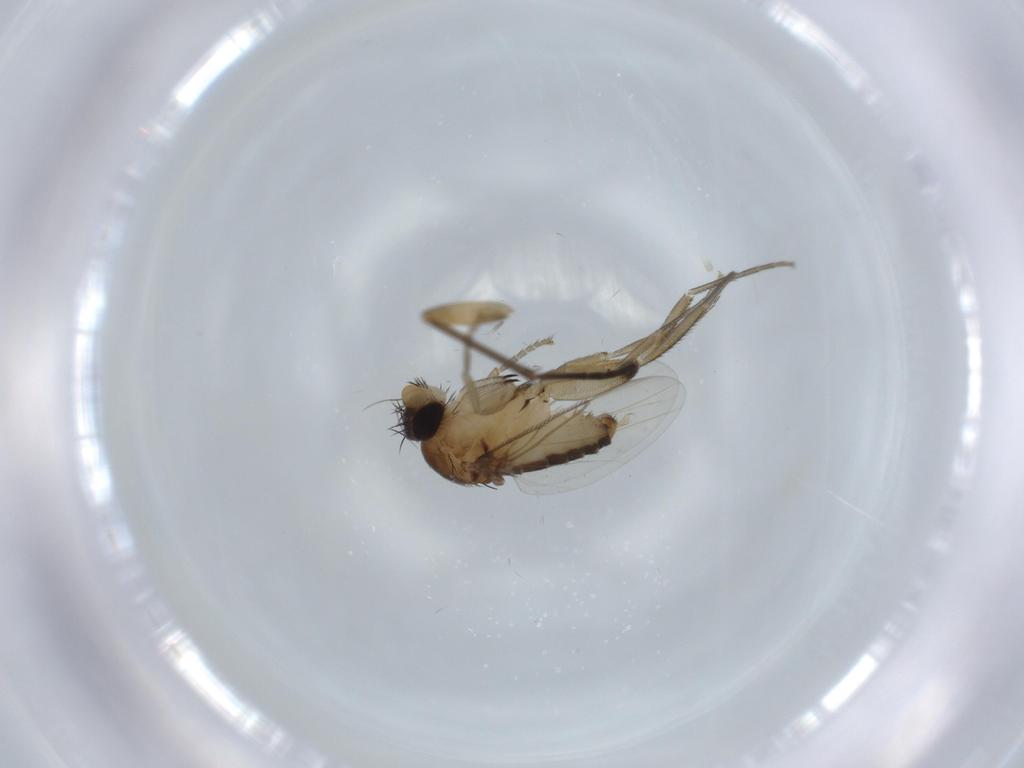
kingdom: Animalia
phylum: Arthropoda
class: Insecta
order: Diptera
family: Phoridae
